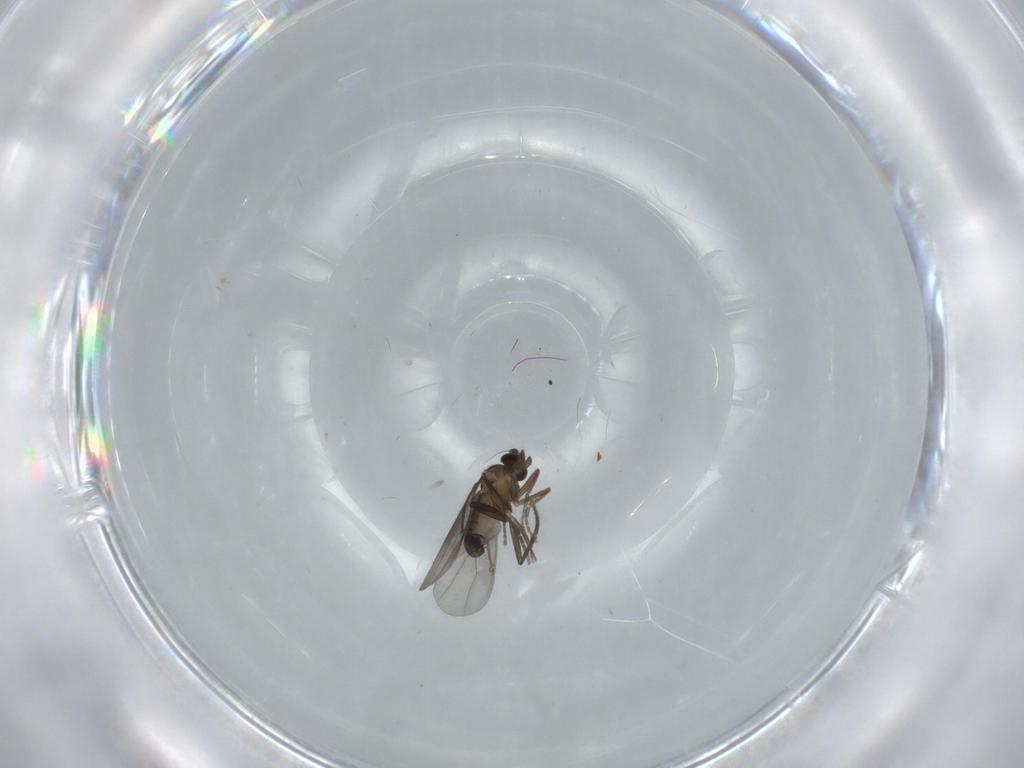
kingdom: Animalia
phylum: Arthropoda
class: Insecta
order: Diptera
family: Phoridae
